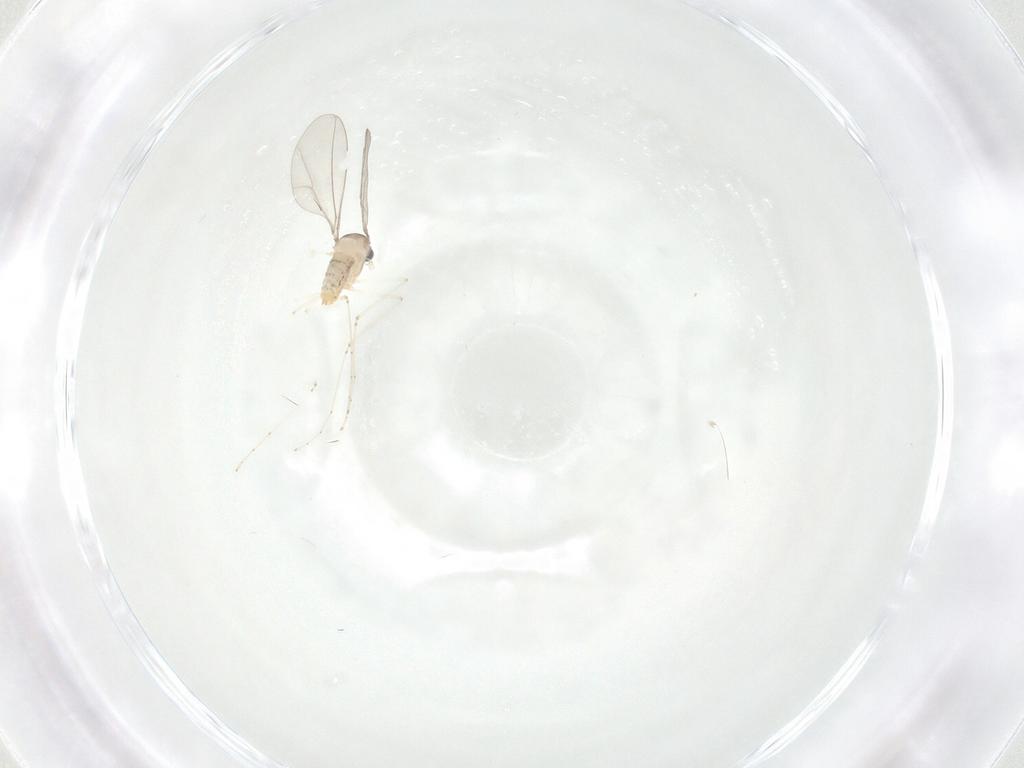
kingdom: Animalia
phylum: Arthropoda
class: Insecta
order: Diptera
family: Cecidomyiidae
